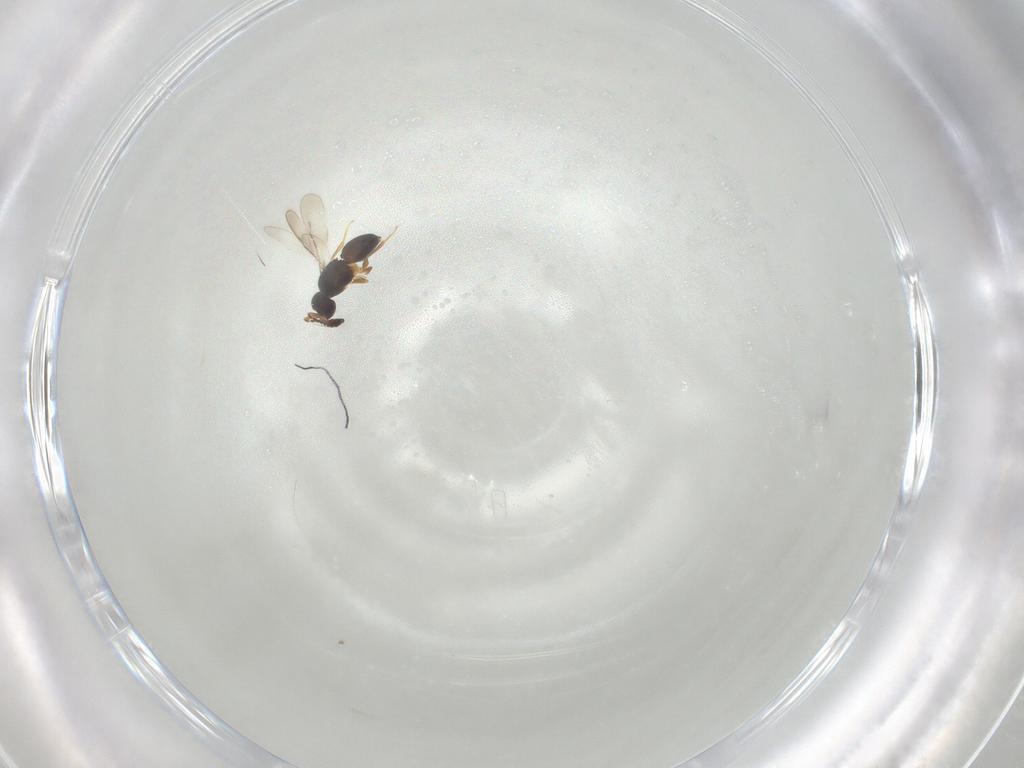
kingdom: Animalia
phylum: Arthropoda
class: Insecta
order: Hymenoptera
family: Ceraphronidae
